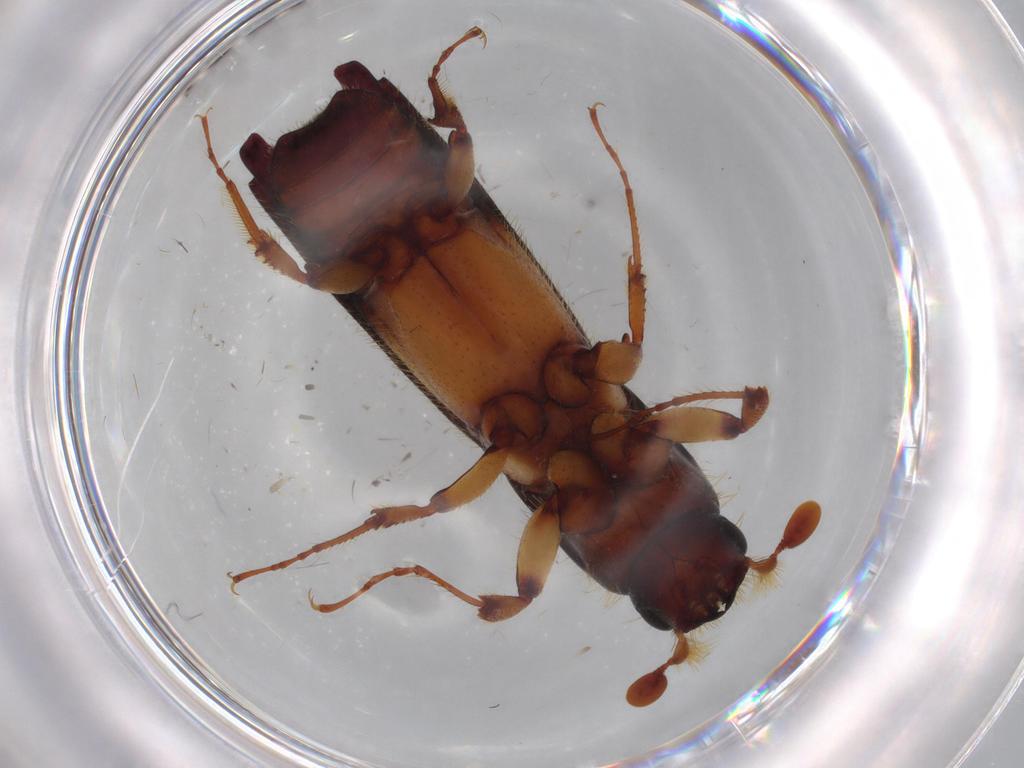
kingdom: Animalia
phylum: Arthropoda
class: Insecta
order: Coleoptera
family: Curculionidae
